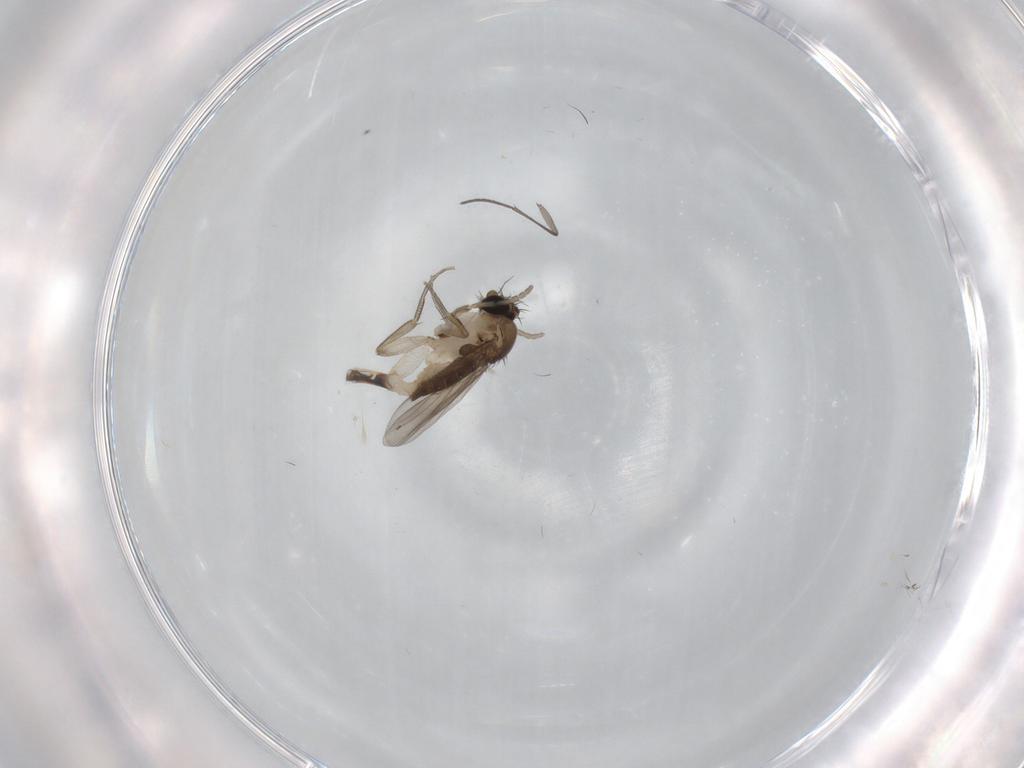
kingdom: Animalia
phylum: Arthropoda
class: Insecta
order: Diptera
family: Phoridae
